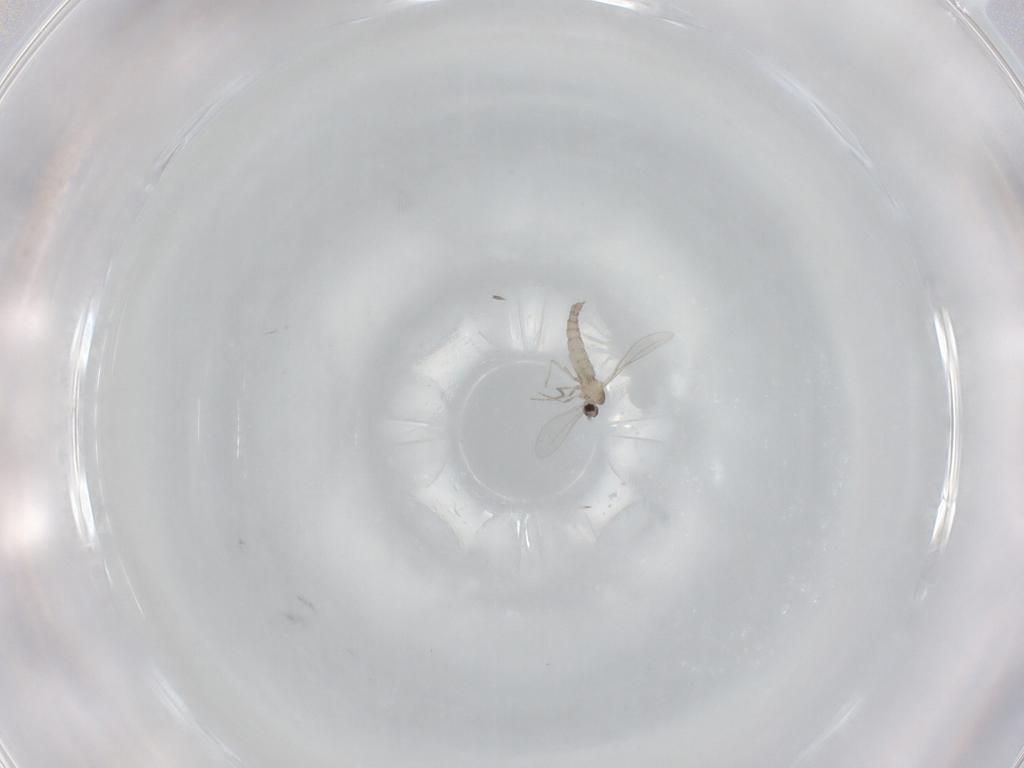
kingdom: Animalia
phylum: Arthropoda
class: Insecta
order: Diptera
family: Cecidomyiidae
